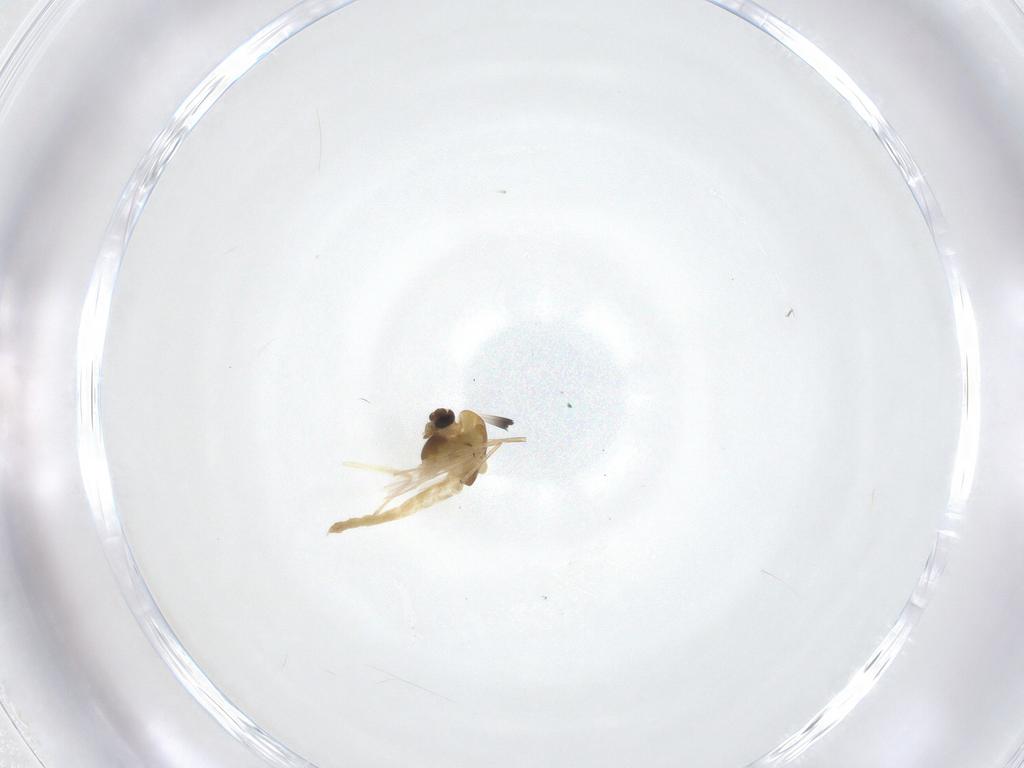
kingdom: Animalia
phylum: Arthropoda
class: Insecta
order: Diptera
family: Chironomidae
